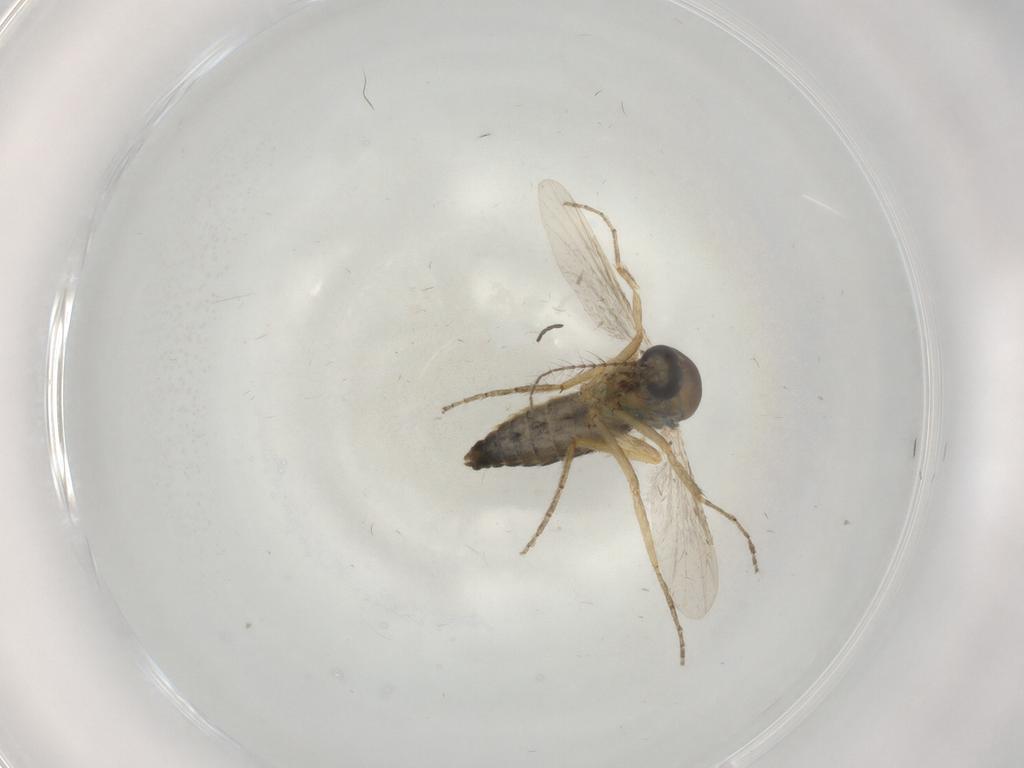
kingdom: Animalia
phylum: Arthropoda
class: Insecta
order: Diptera
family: Ceratopogonidae
